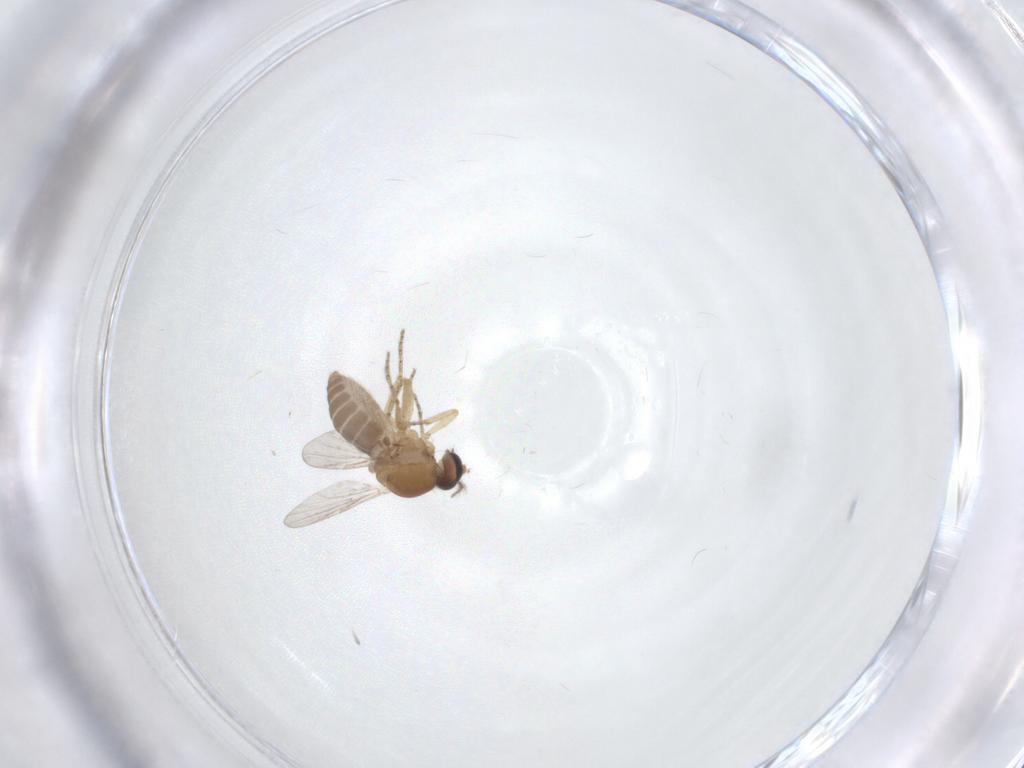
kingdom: Animalia
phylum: Arthropoda
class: Insecta
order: Diptera
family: Ceratopogonidae
